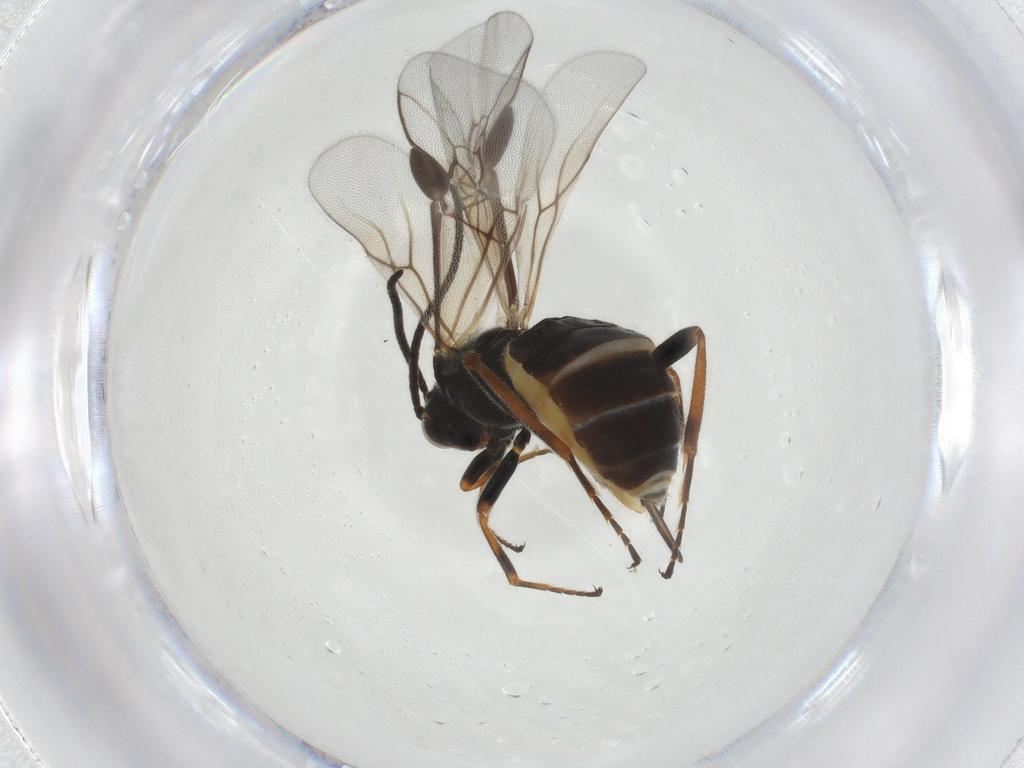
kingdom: Animalia
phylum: Arthropoda
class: Insecta
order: Hymenoptera
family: Braconidae
